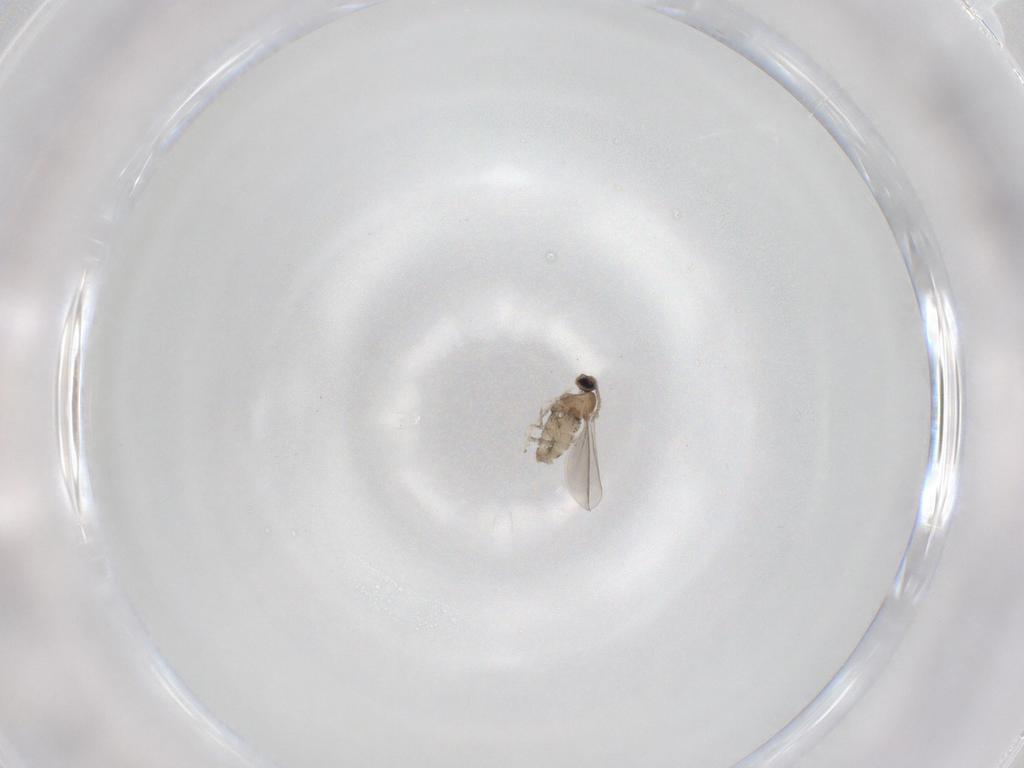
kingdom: Animalia
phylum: Arthropoda
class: Insecta
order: Diptera
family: Cecidomyiidae
